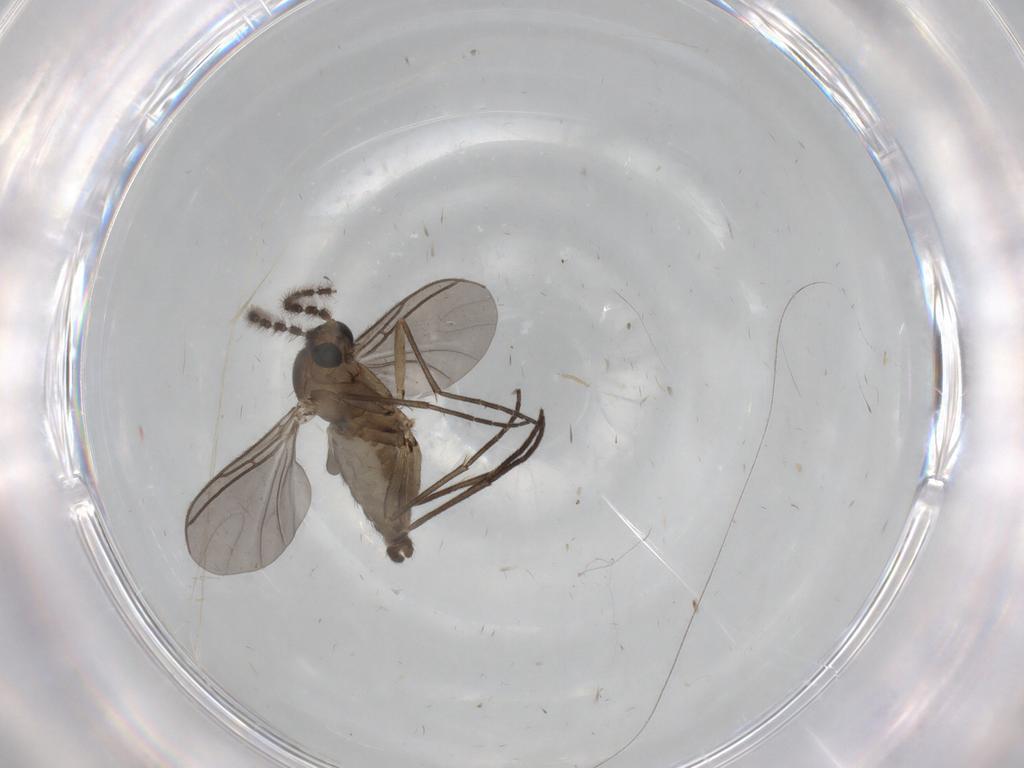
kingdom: Animalia
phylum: Arthropoda
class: Insecta
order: Diptera
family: Sciaridae
